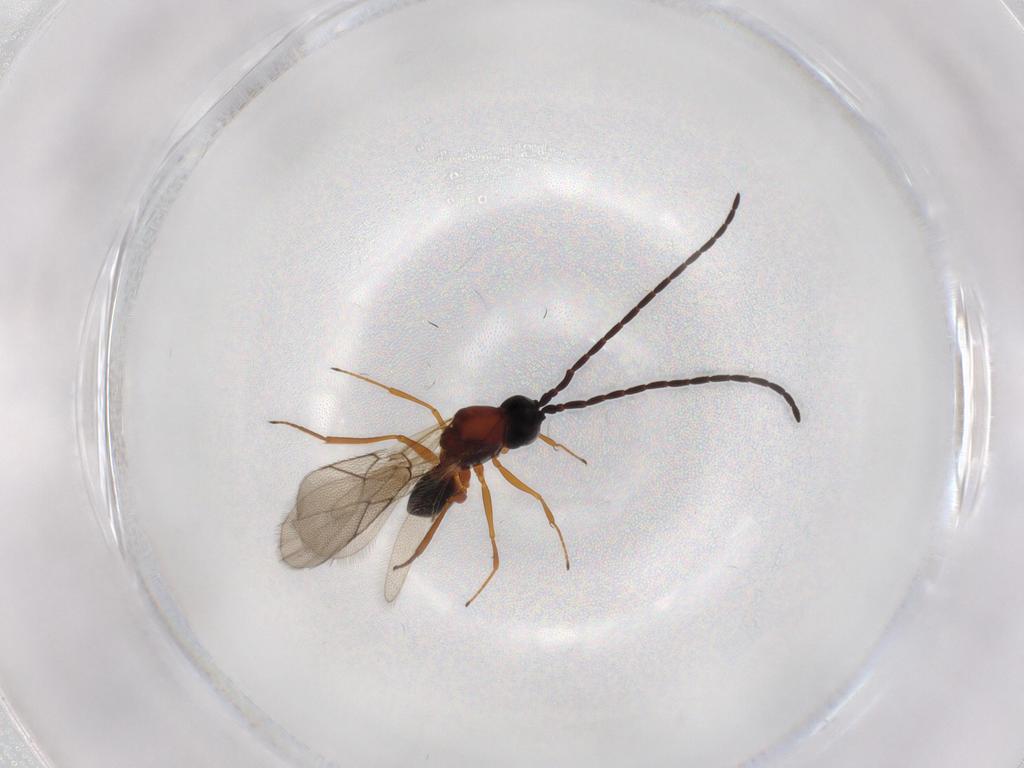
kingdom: Animalia
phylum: Arthropoda
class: Insecta
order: Hymenoptera
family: Figitidae
